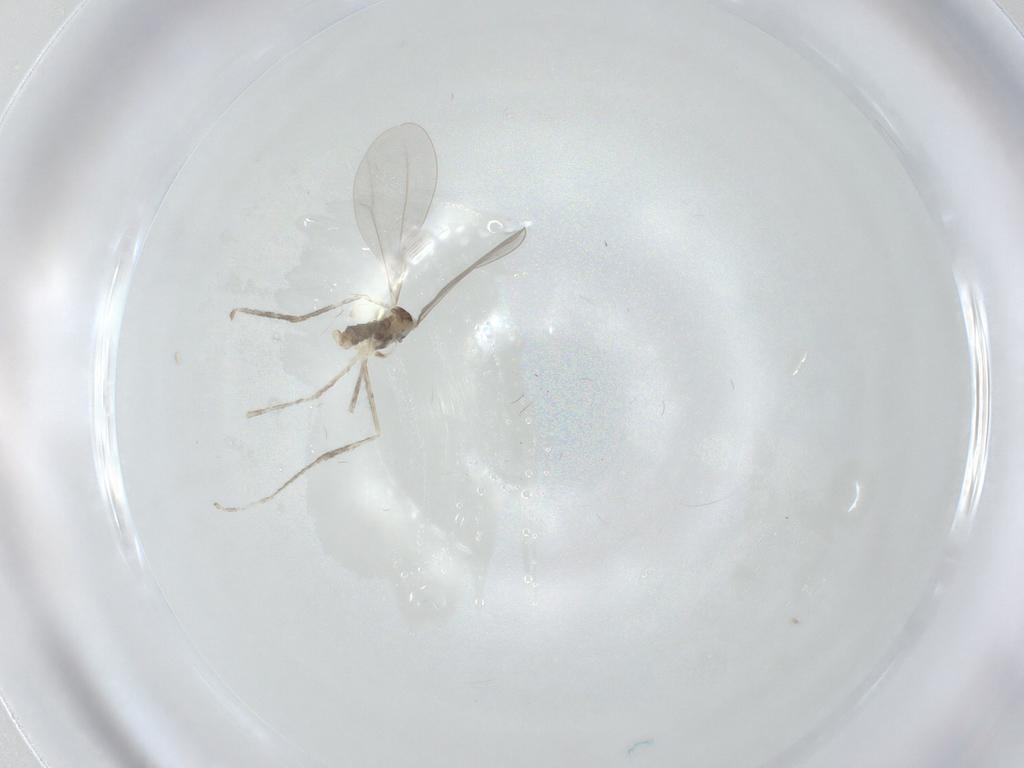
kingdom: Animalia
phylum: Arthropoda
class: Insecta
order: Diptera
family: Cecidomyiidae
